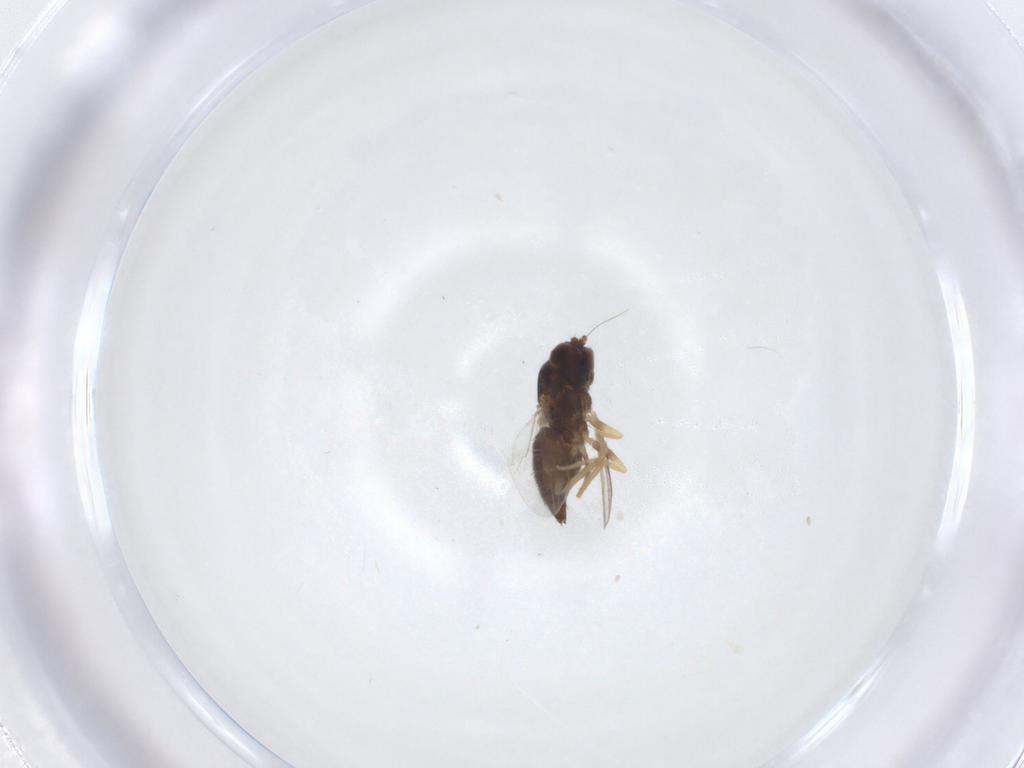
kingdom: Animalia
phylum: Arthropoda
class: Insecta
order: Diptera
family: Dolichopodidae
